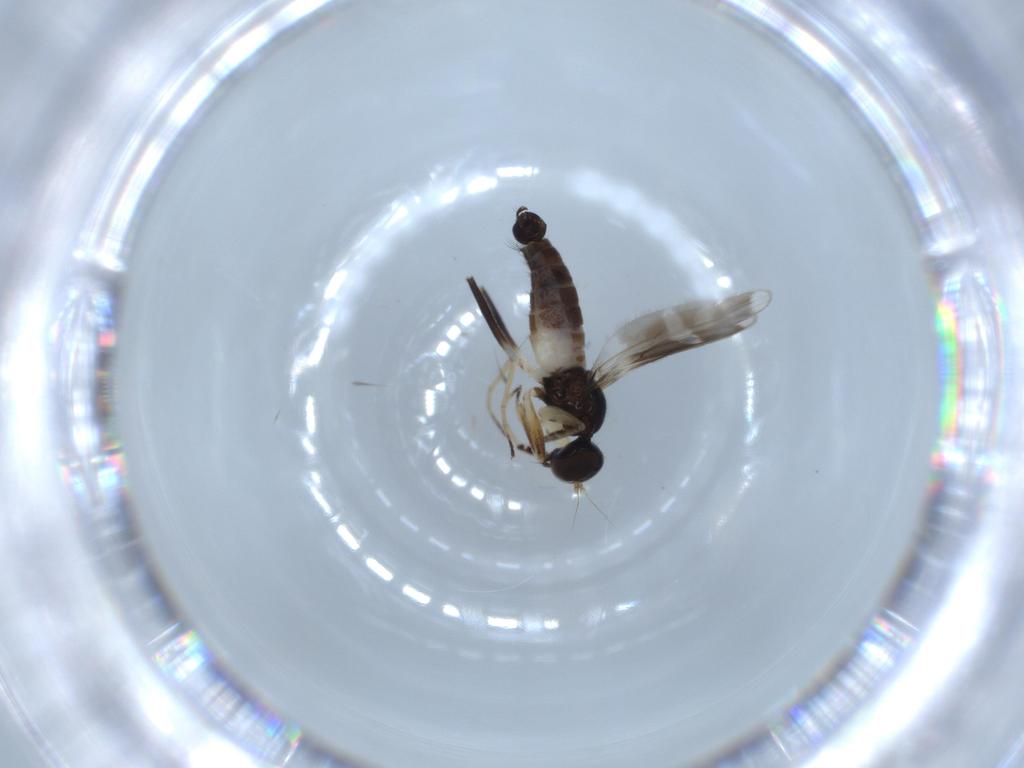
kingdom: Animalia
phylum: Arthropoda
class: Insecta
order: Diptera
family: Hybotidae
